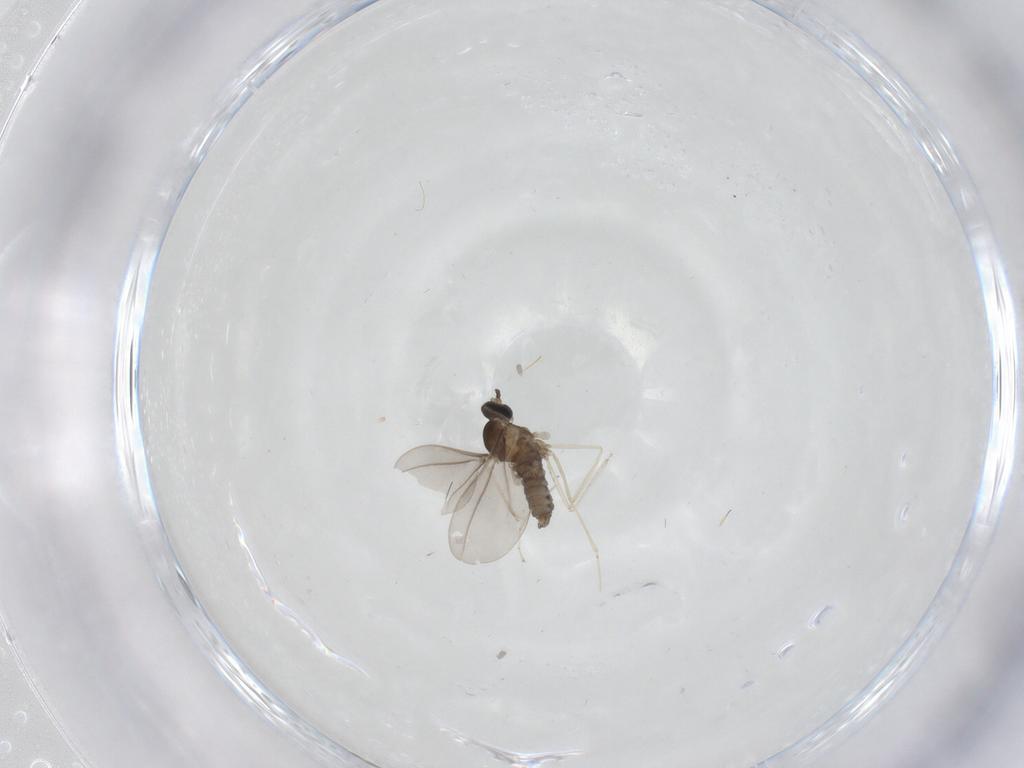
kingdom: Animalia
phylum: Arthropoda
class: Insecta
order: Diptera
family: Cecidomyiidae
